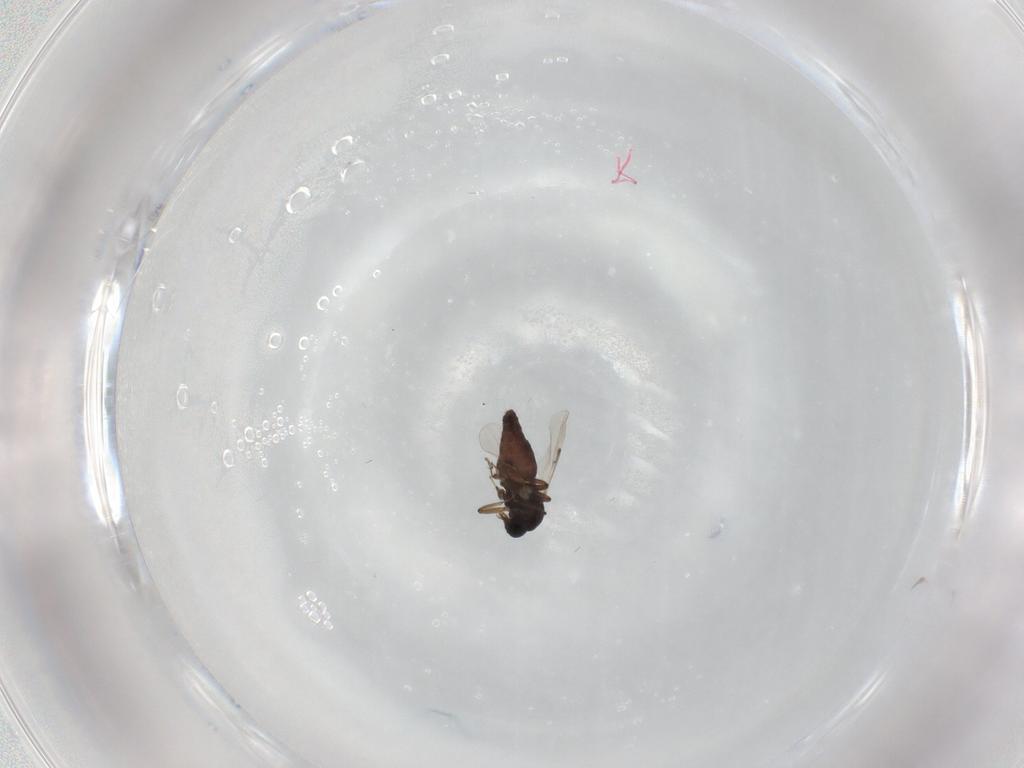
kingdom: Animalia
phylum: Arthropoda
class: Insecta
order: Diptera
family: Ceratopogonidae
